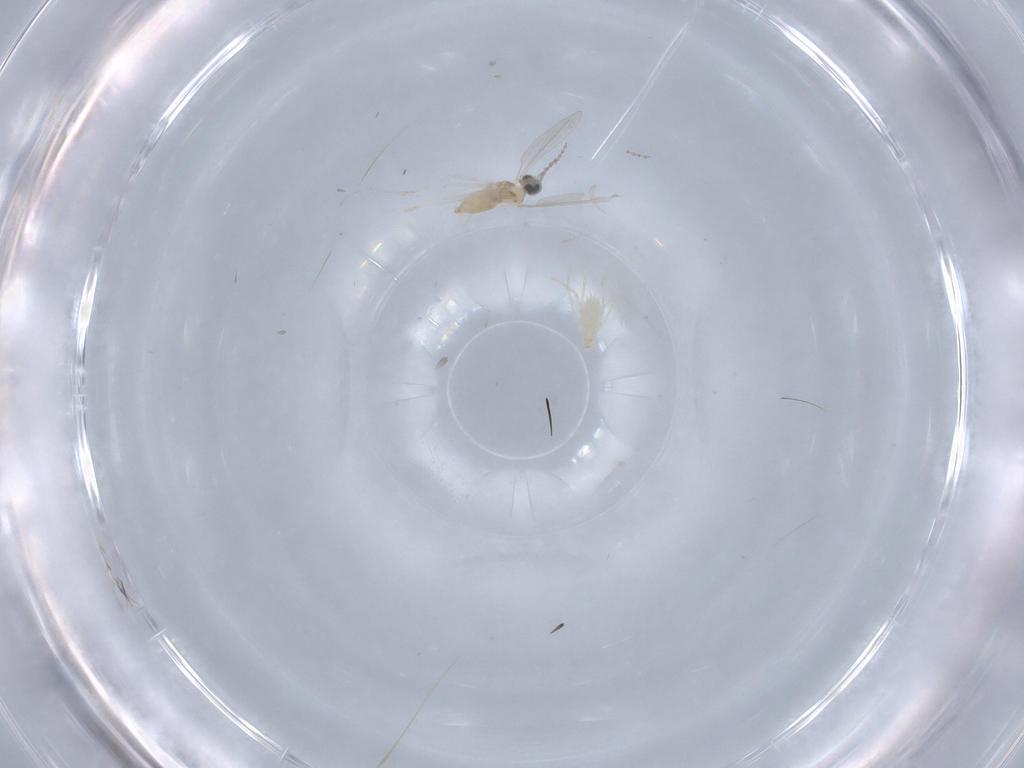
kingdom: Animalia
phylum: Arthropoda
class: Insecta
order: Diptera
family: Cecidomyiidae
